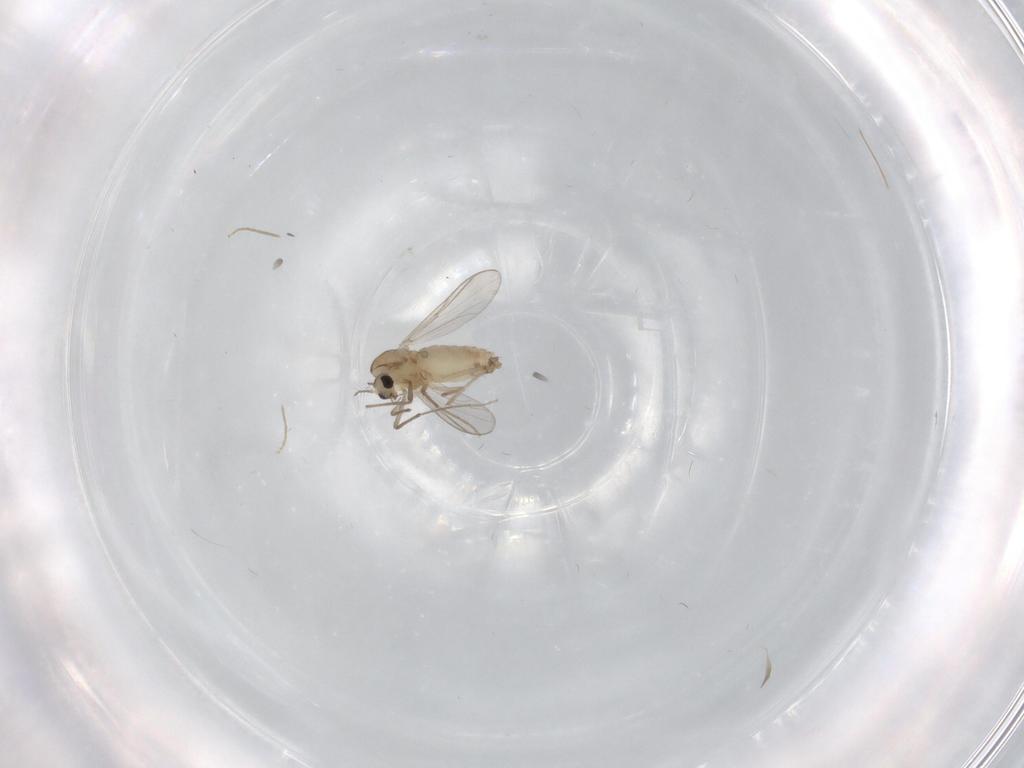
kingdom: Animalia
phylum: Arthropoda
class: Insecta
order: Diptera
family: Chironomidae
